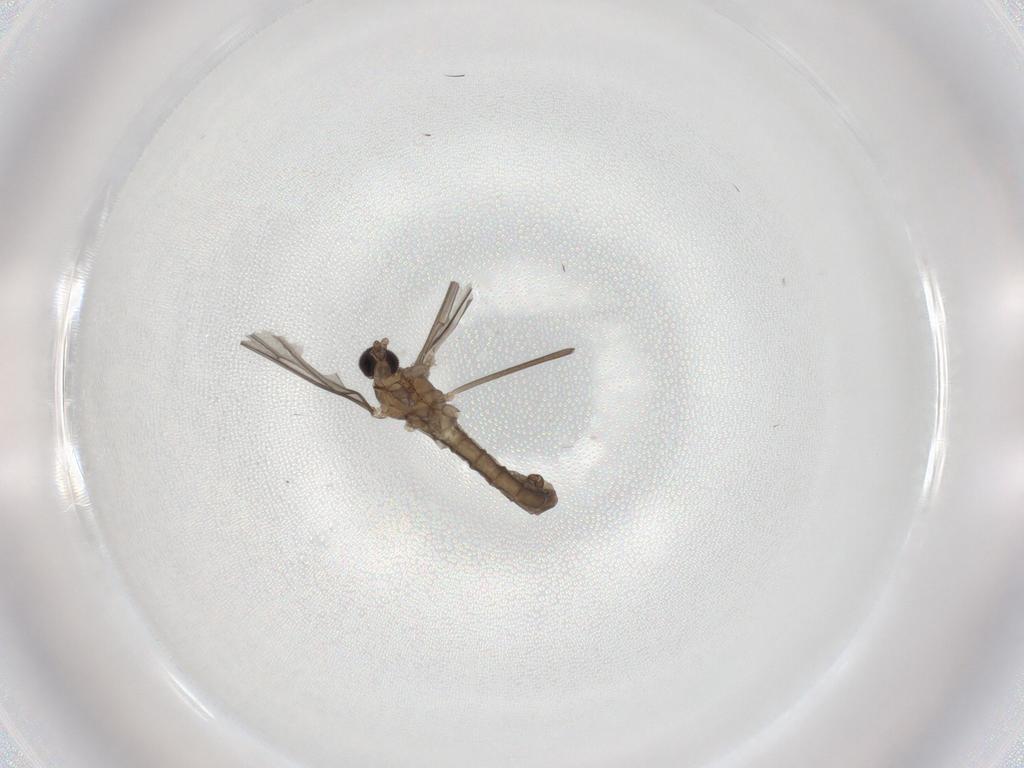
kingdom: Animalia
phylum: Arthropoda
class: Insecta
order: Diptera
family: Cecidomyiidae
